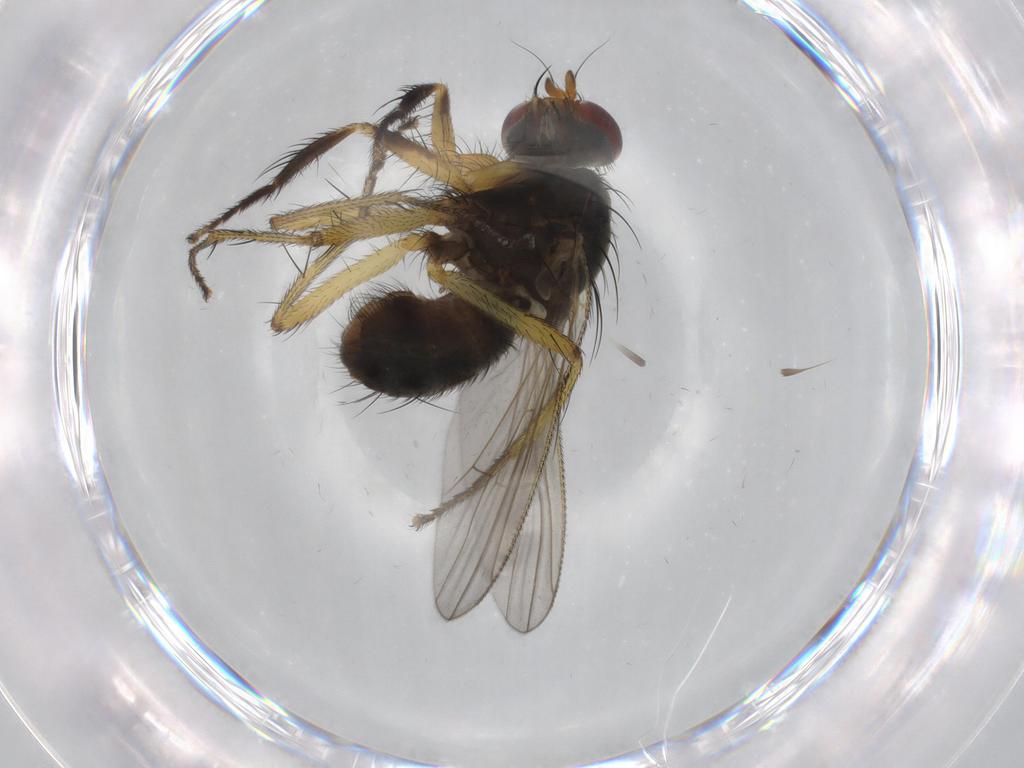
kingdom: Animalia
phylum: Arthropoda
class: Insecta
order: Diptera
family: Muscidae
